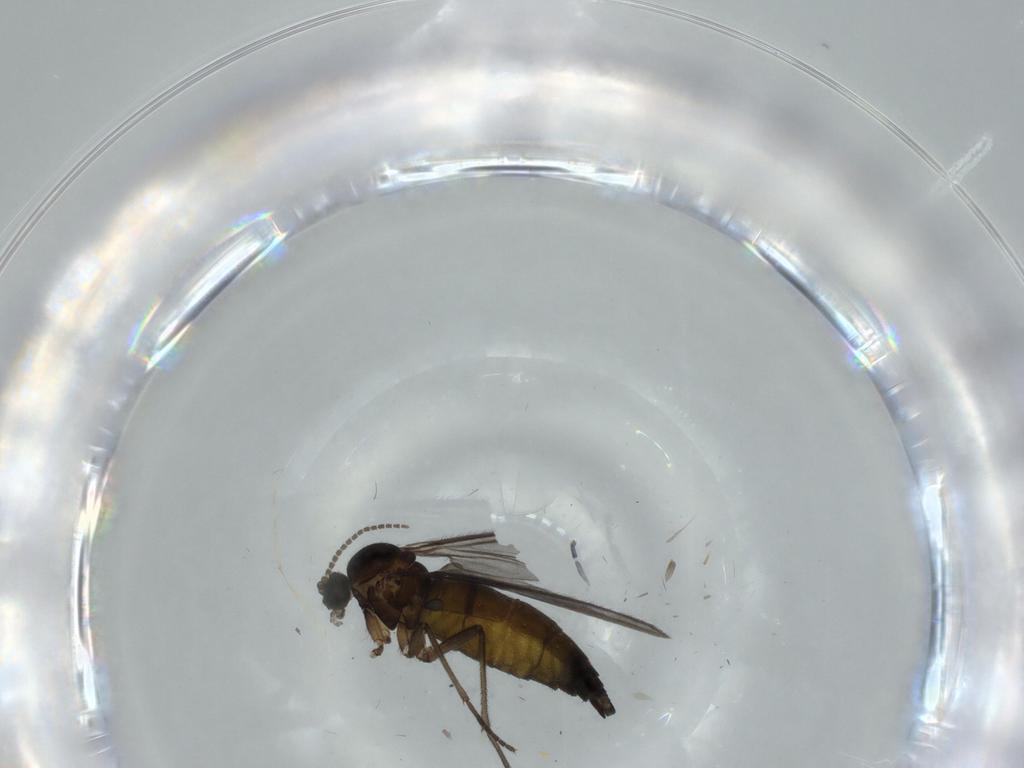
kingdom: Animalia
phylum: Arthropoda
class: Insecta
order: Diptera
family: Sciaridae
